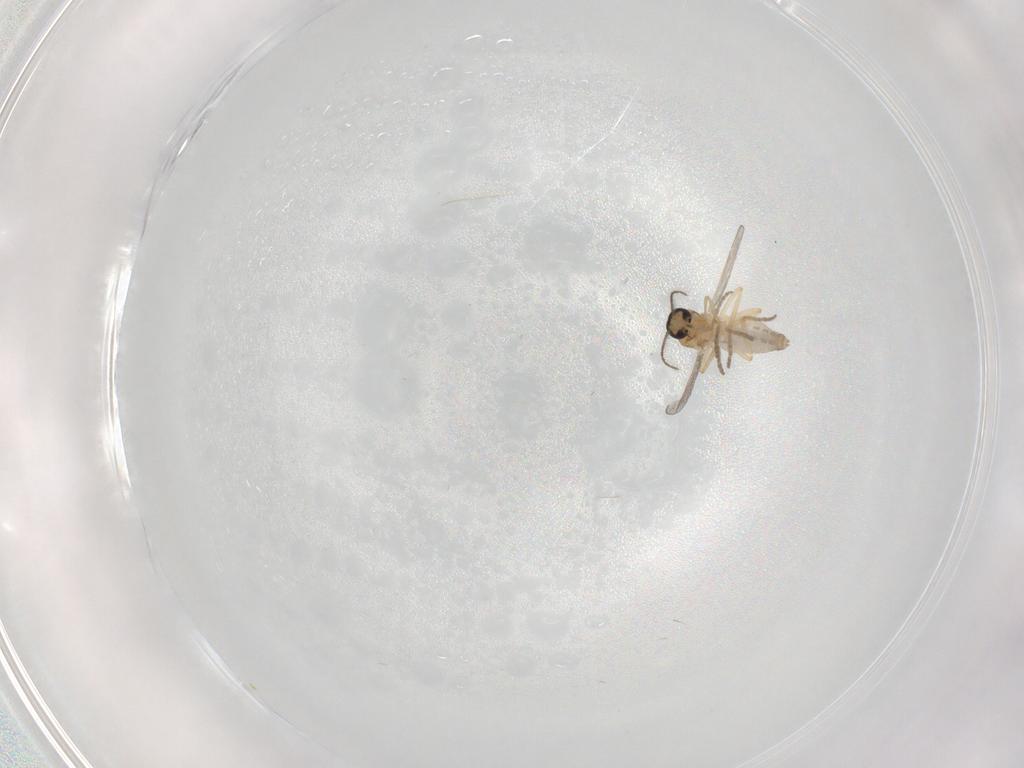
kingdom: Animalia
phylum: Arthropoda
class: Insecta
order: Diptera
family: Ceratopogonidae
